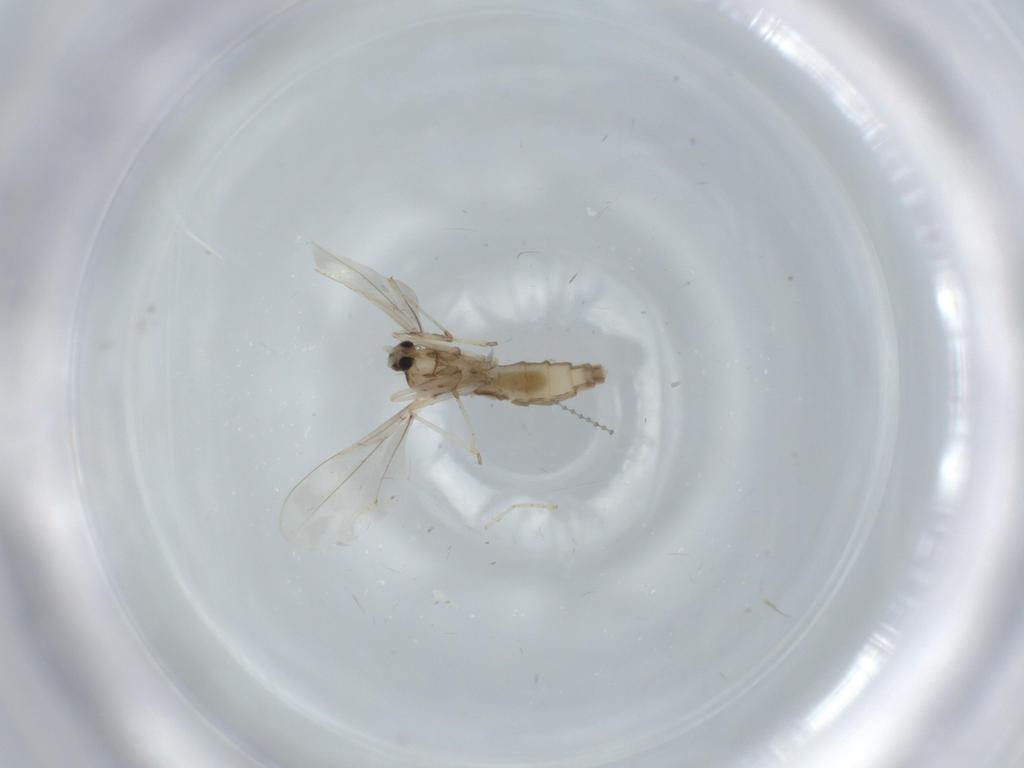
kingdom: Animalia
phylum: Arthropoda
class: Insecta
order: Diptera
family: Cecidomyiidae
